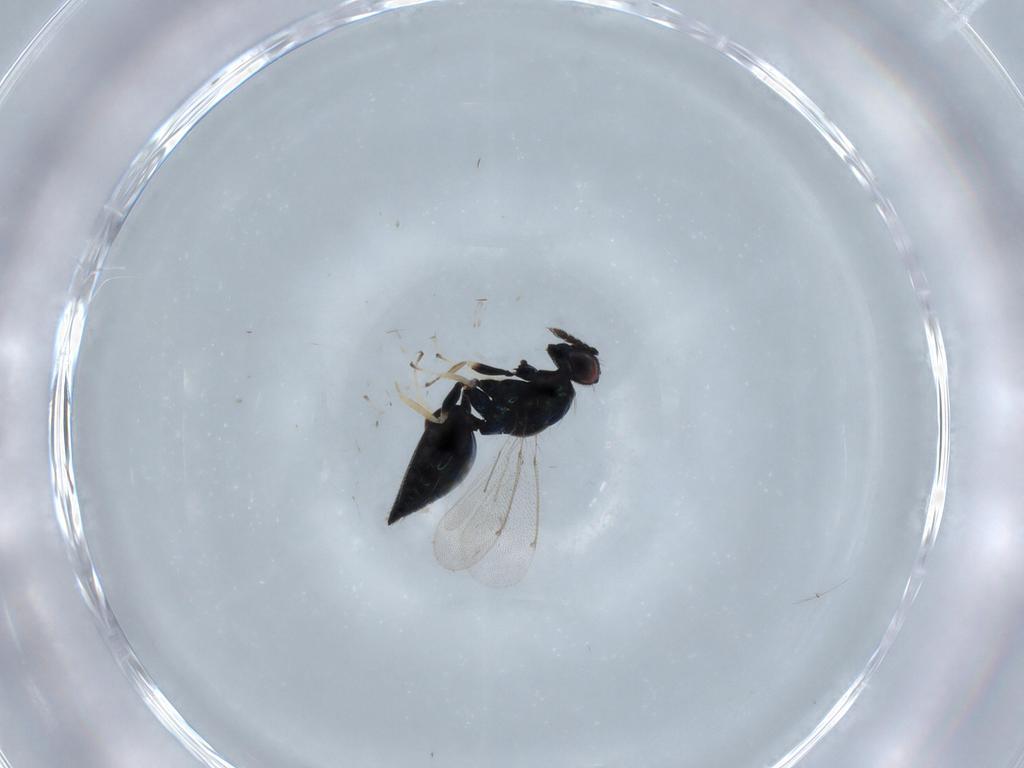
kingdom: Animalia
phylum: Arthropoda
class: Insecta
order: Hymenoptera
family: Eulophidae
